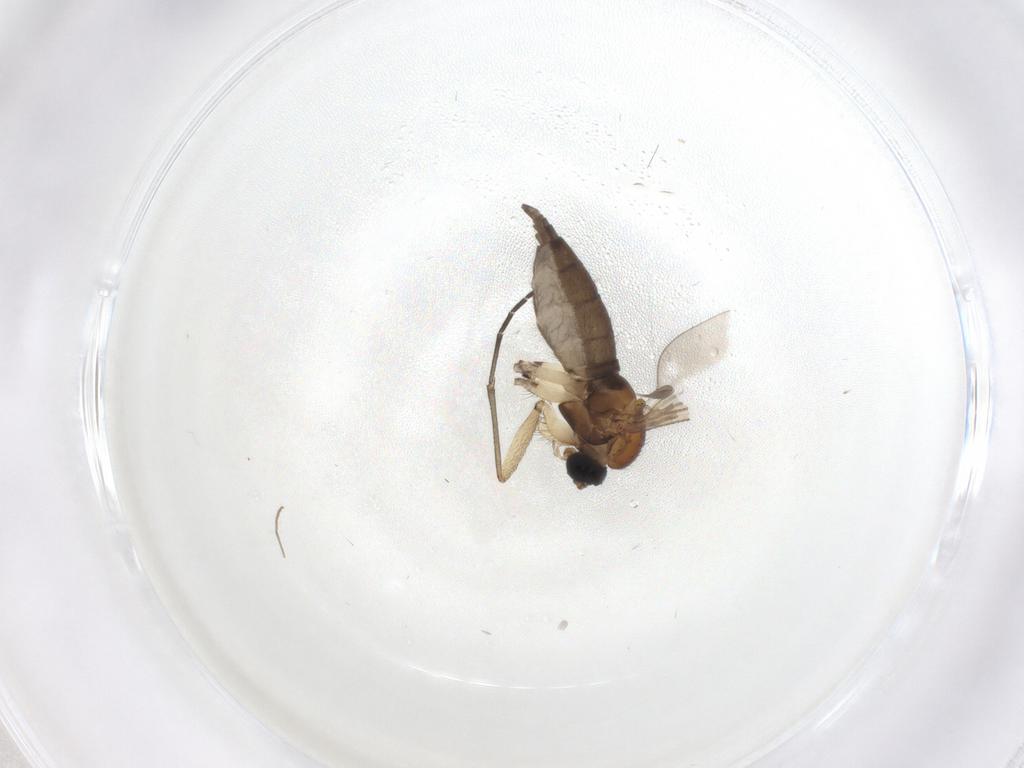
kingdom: Animalia
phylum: Arthropoda
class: Insecta
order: Diptera
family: Sciaridae
